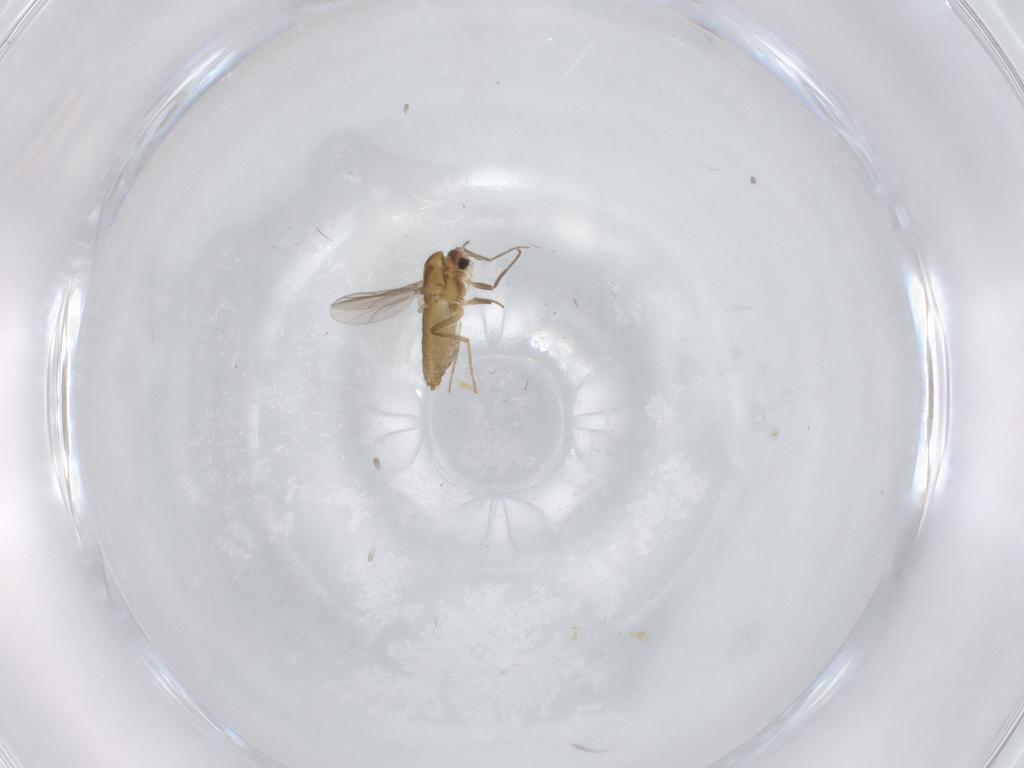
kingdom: Animalia
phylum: Arthropoda
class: Insecta
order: Diptera
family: Chironomidae
